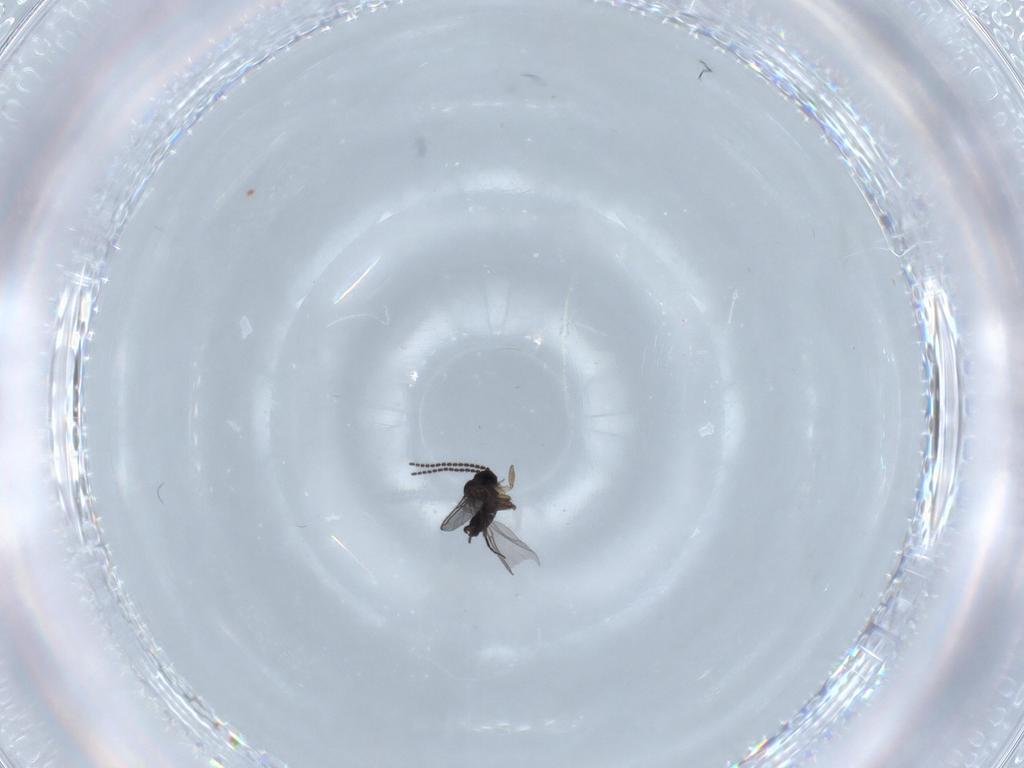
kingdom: Animalia
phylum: Arthropoda
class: Insecta
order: Diptera
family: Sciaridae
